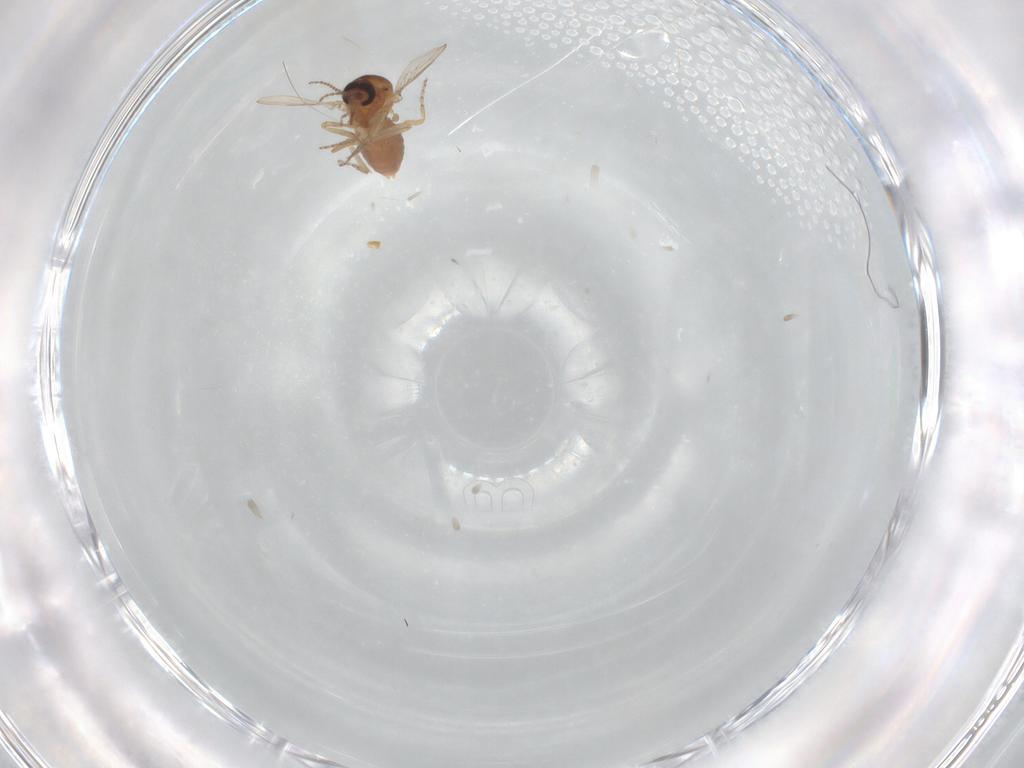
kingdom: Animalia
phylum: Arthropoda
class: Insecta
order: Diptera
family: Ceratopogonidae
